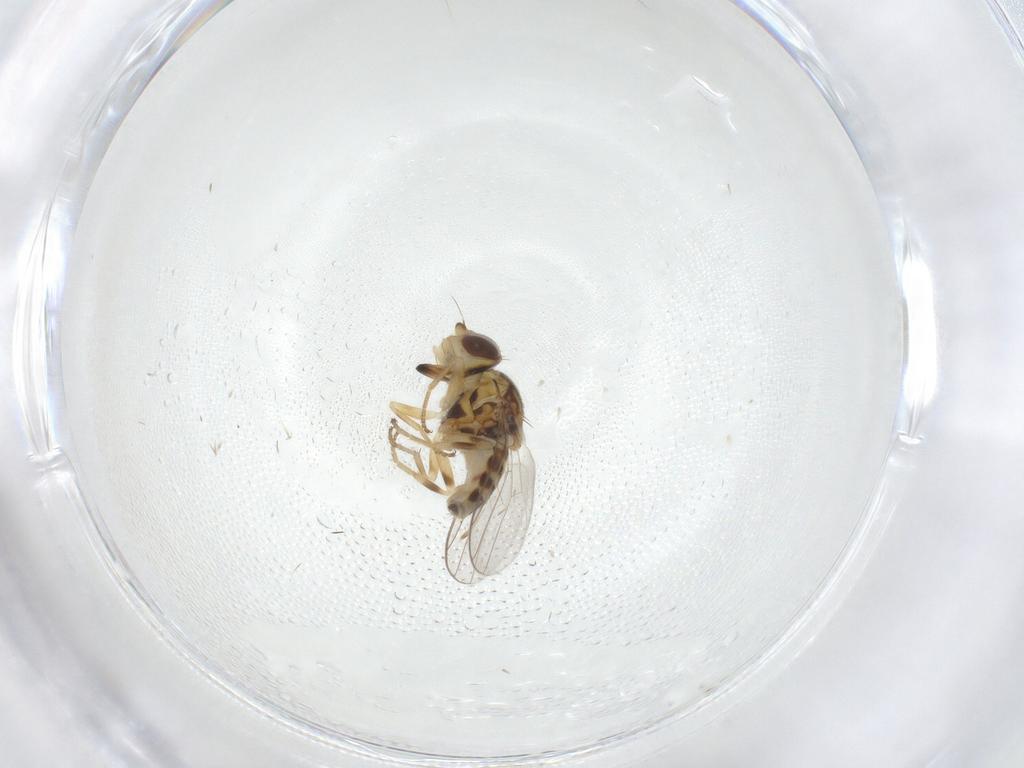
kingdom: Animalia
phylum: Arthropoda
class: Insecta
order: Diptera
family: Chloropidae
